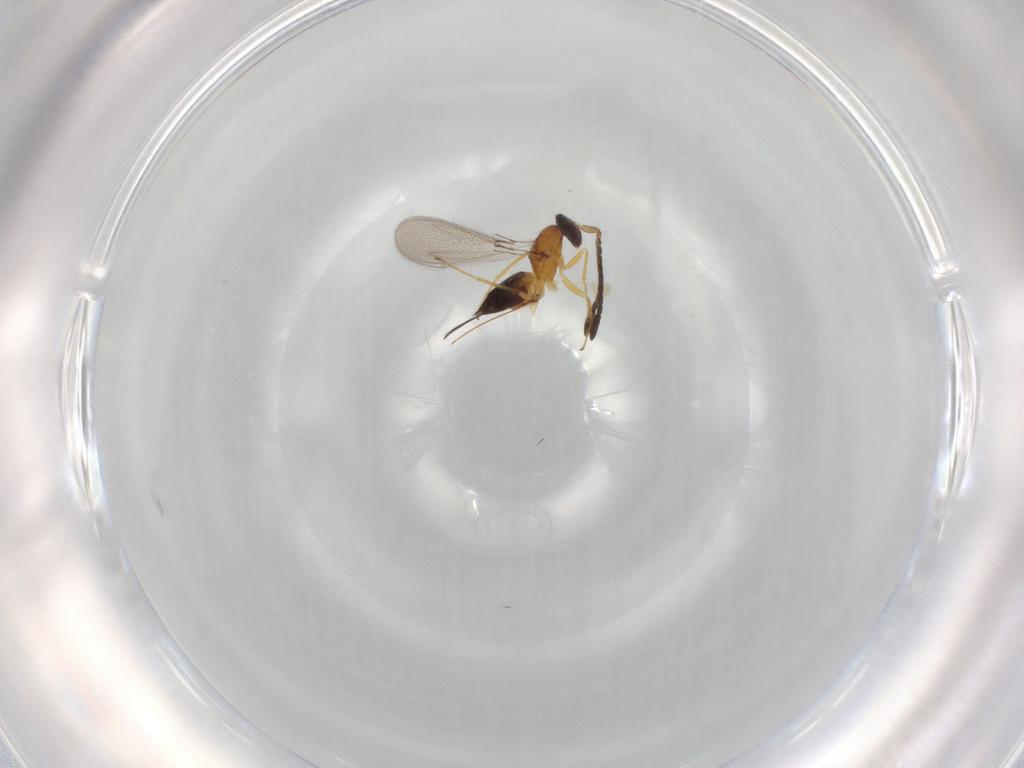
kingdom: Animalia
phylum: Arthropoda
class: Insecta
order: Hymenoptera
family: Mymaridae
